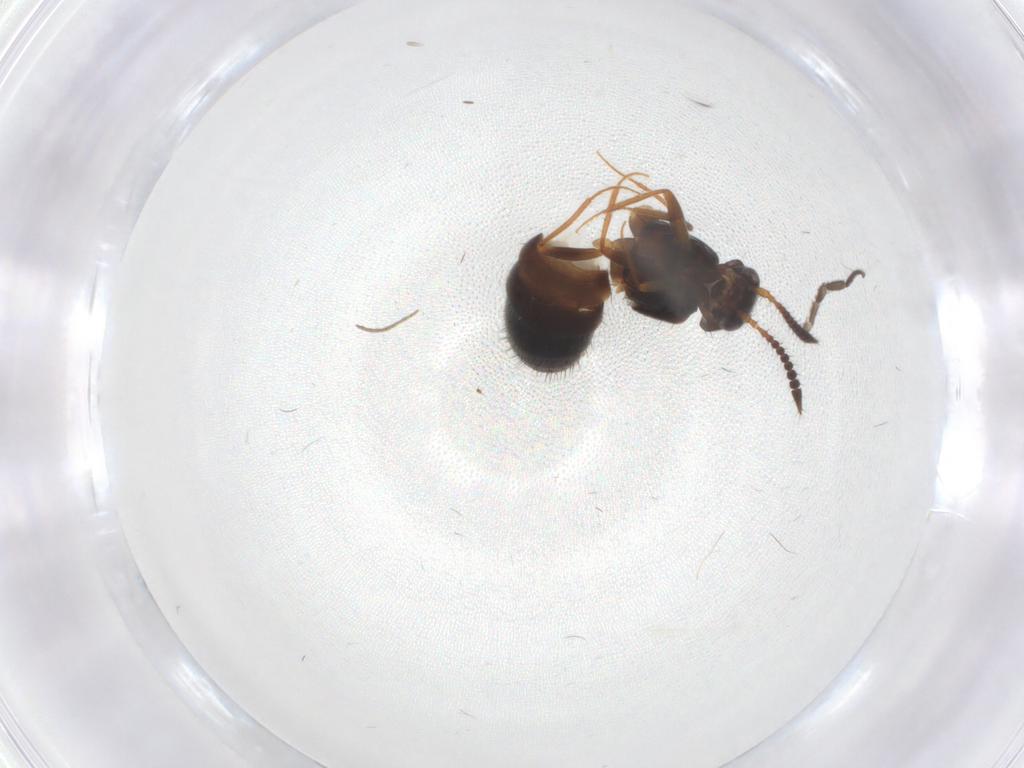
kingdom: Animalia
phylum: Arthropoda
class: Insecta
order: Coleoptera
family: Staphylinidae
